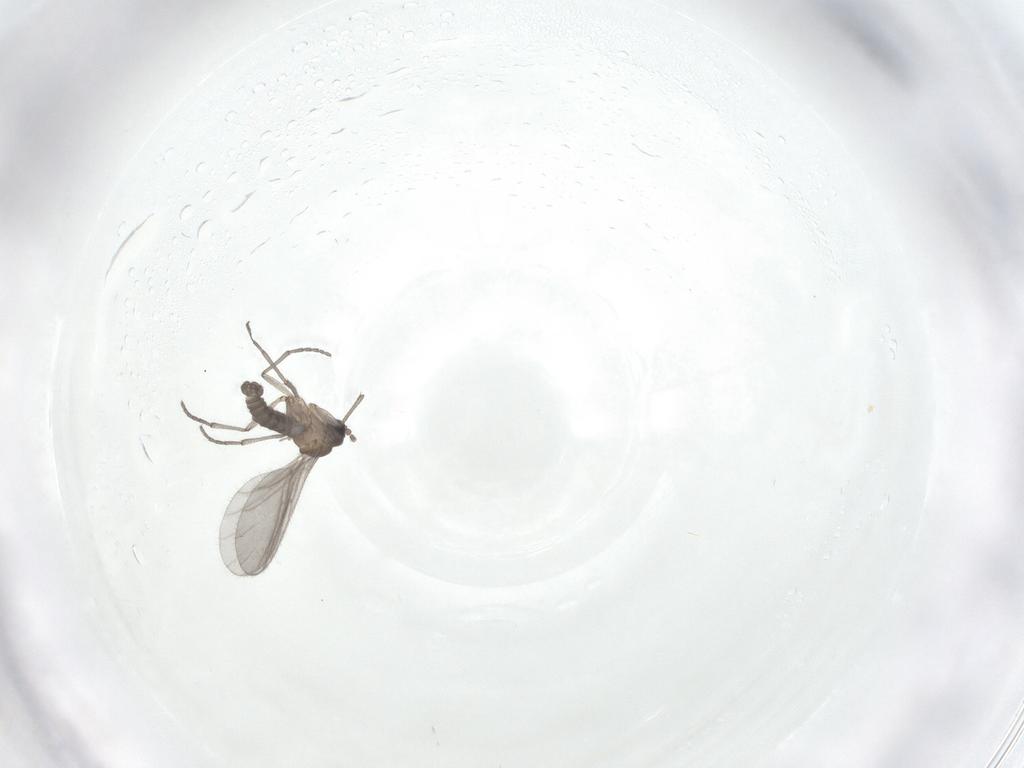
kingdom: Animalia
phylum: Arthropoda
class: Insecta
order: Diptera
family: Sciaridae
